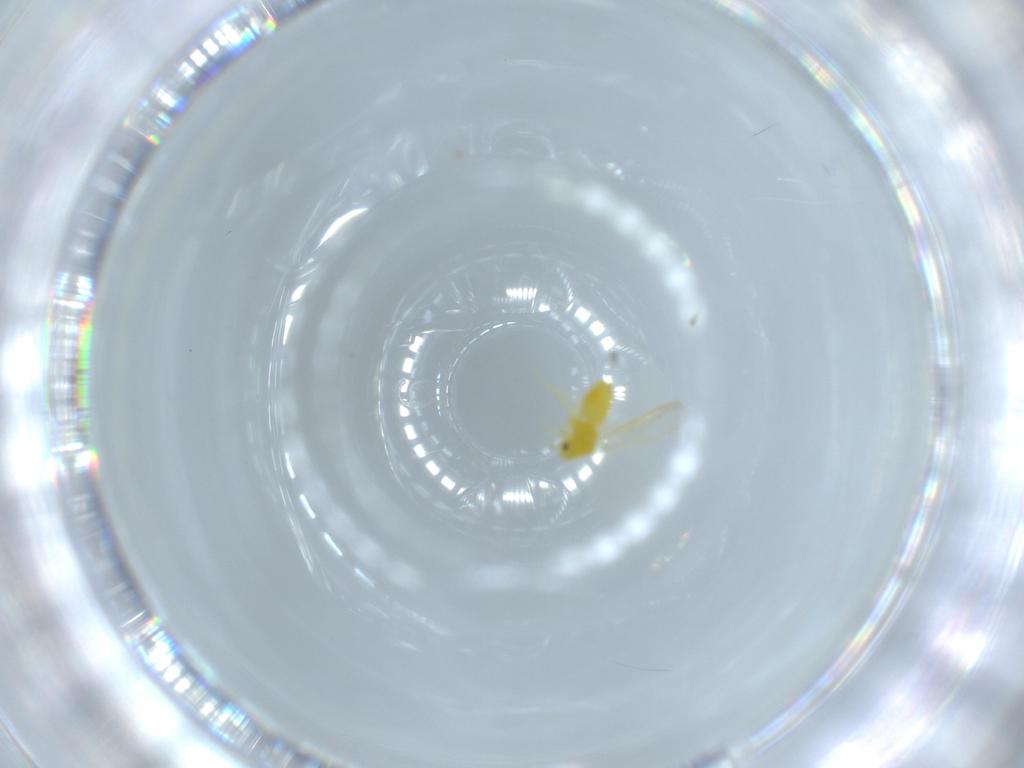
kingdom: Animalia
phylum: Arthropoda
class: Insecta
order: Hemiptera
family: Aleyrodidae
